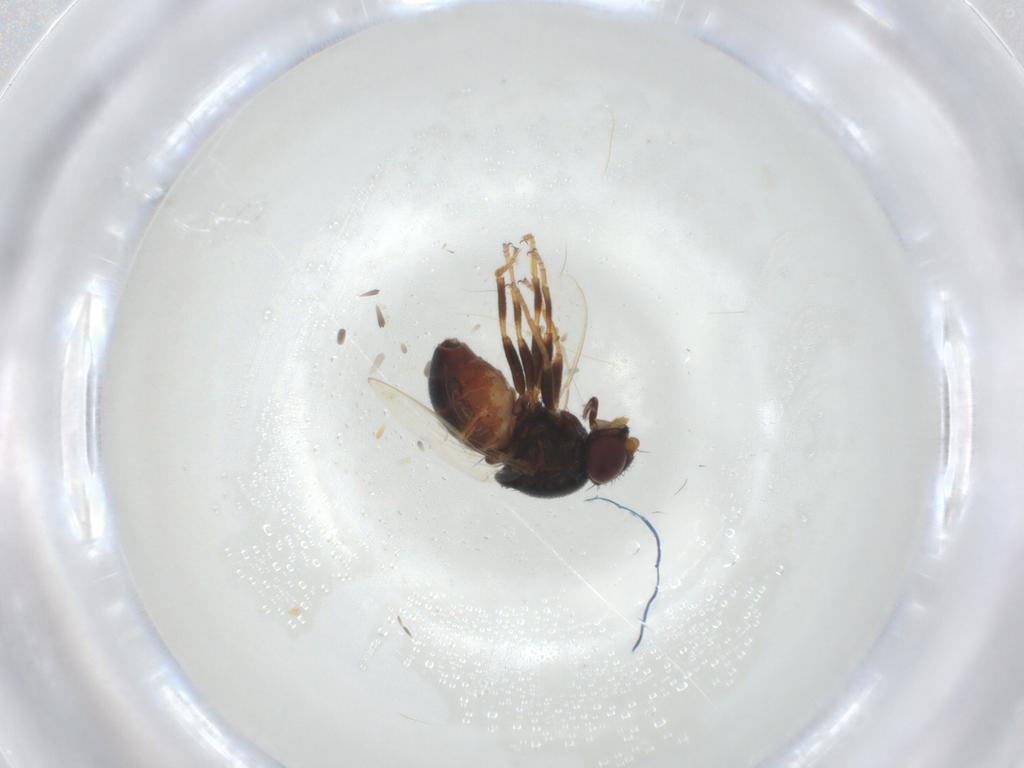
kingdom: Animalia
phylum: Arthropoda
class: Insecta
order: Diptera
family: Chloropidae
